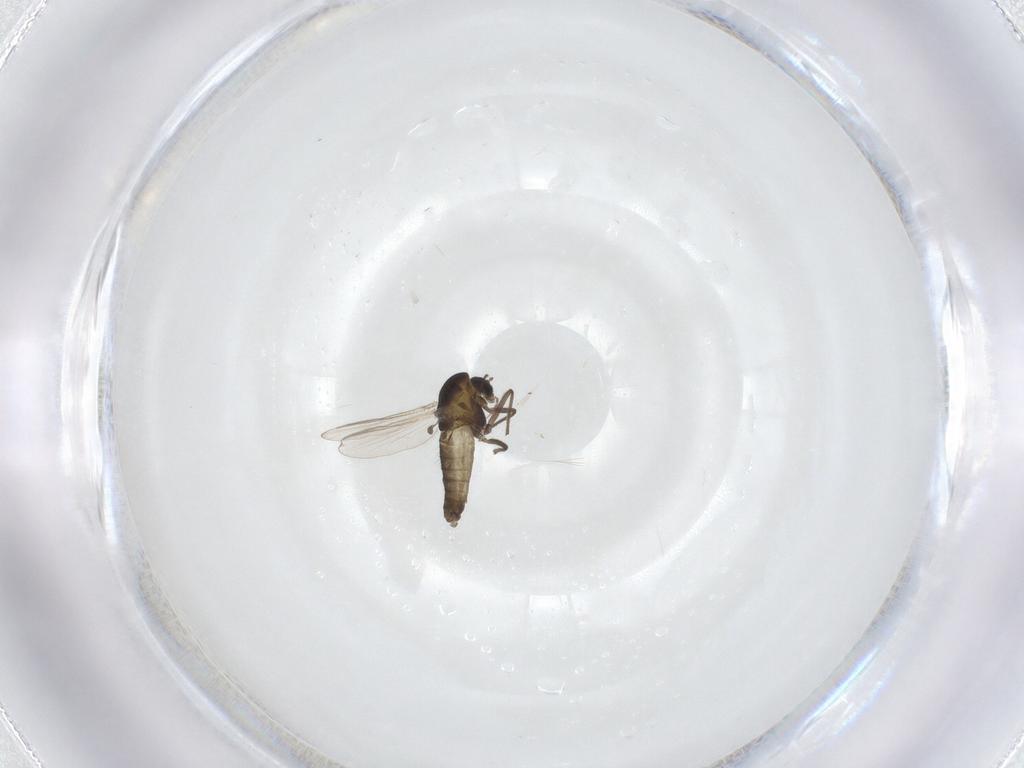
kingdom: Animalia
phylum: Arthropoda
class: Insecta
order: Diptera
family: Chironomidae
